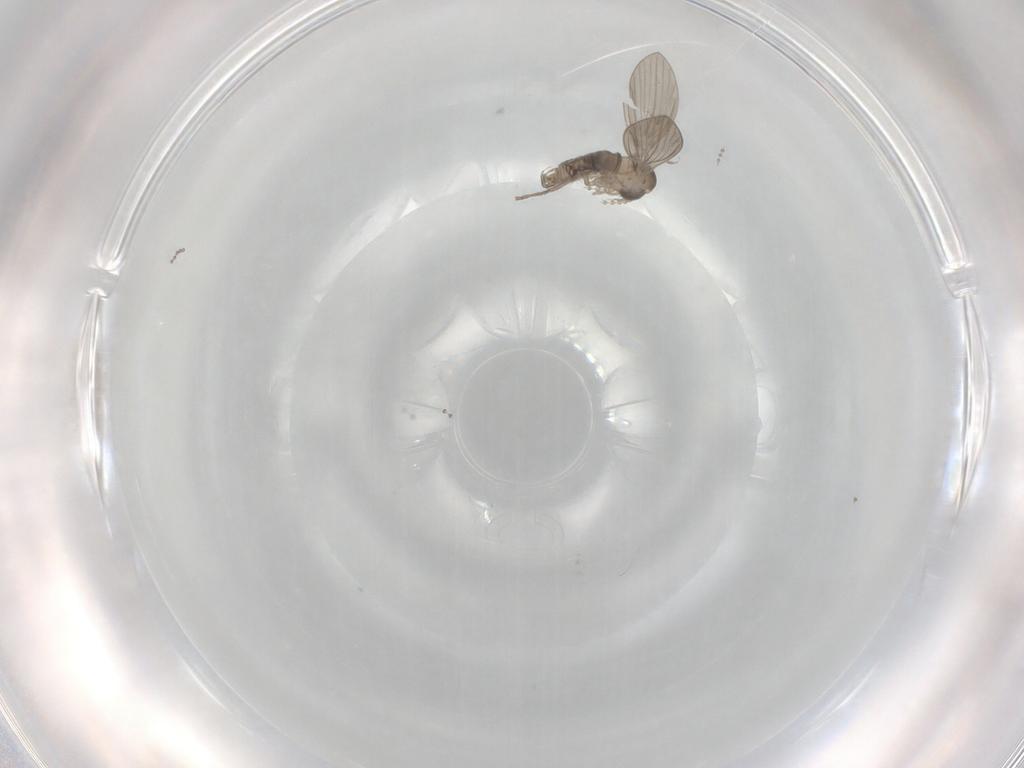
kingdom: Animalia
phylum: Arthropoda
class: Insecta
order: Diptera
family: Psychodidae
